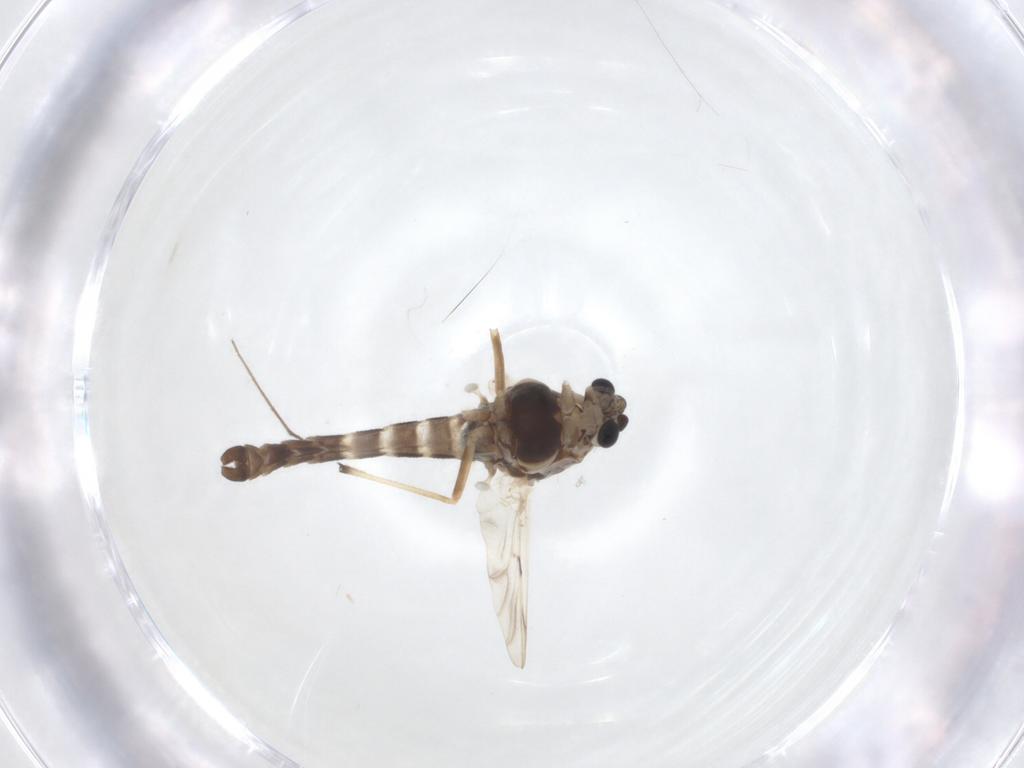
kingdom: Animalia
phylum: Arthropoda
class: Insecta
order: Diptera
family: Chironomidae
